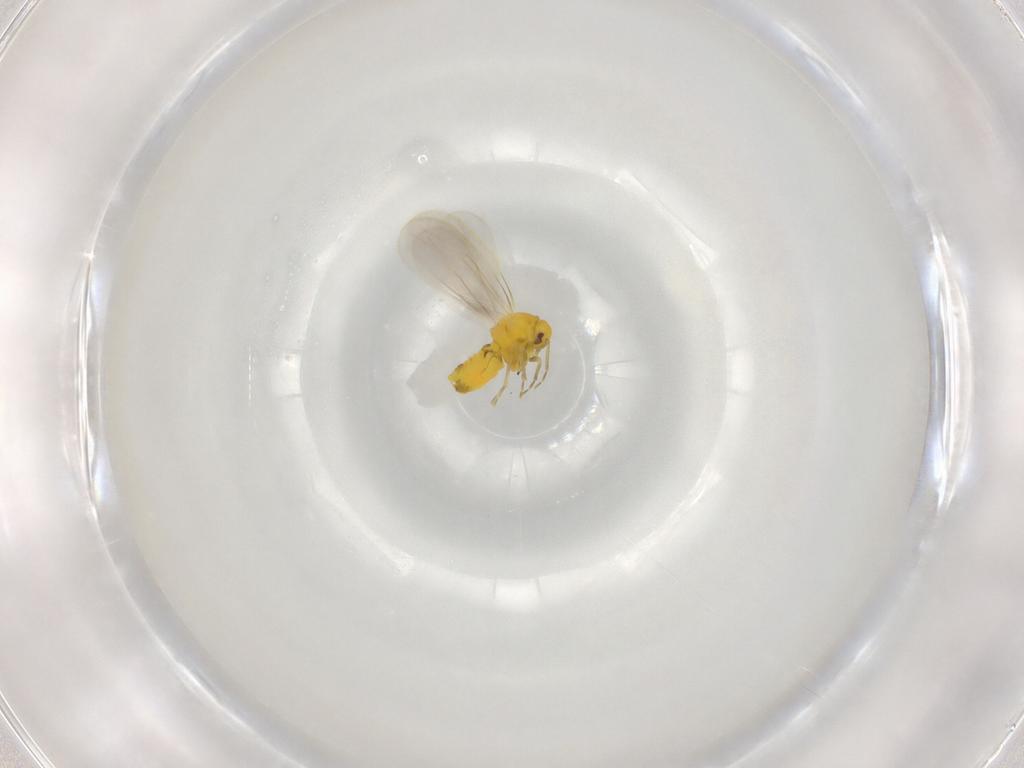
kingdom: Animalia
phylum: Arthropoda
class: Insecta
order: Hemiptera
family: Aleyrodidae
